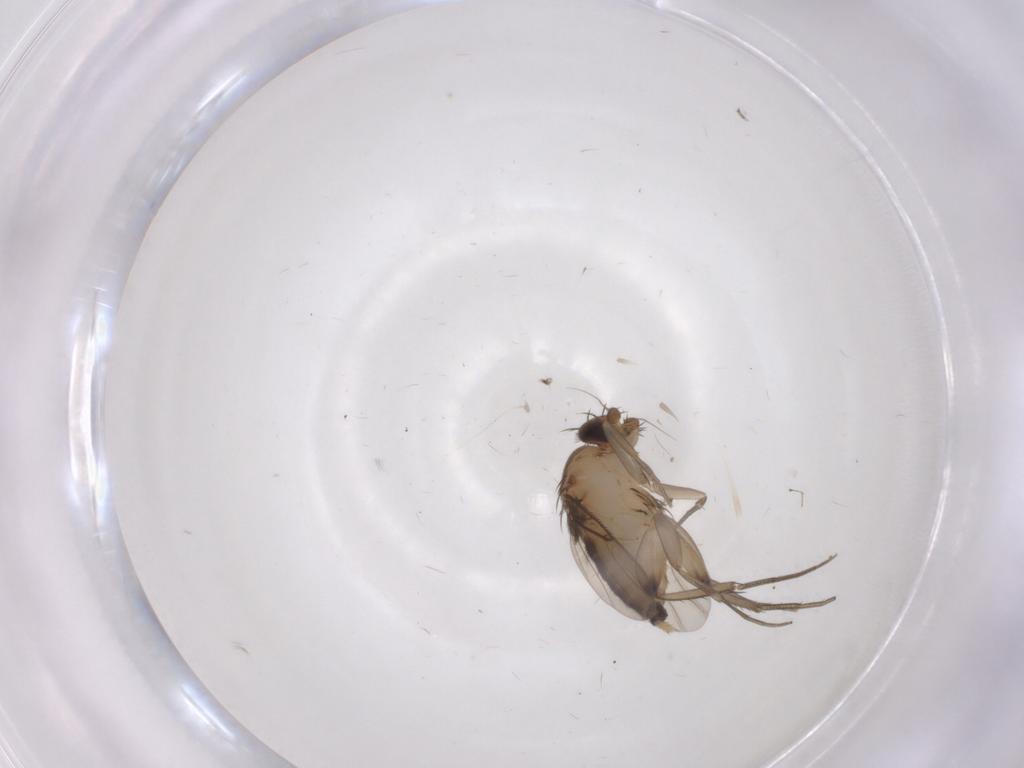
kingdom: Animalia
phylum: Arthropoda
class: Insecta
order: Diptera
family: Phoridae
